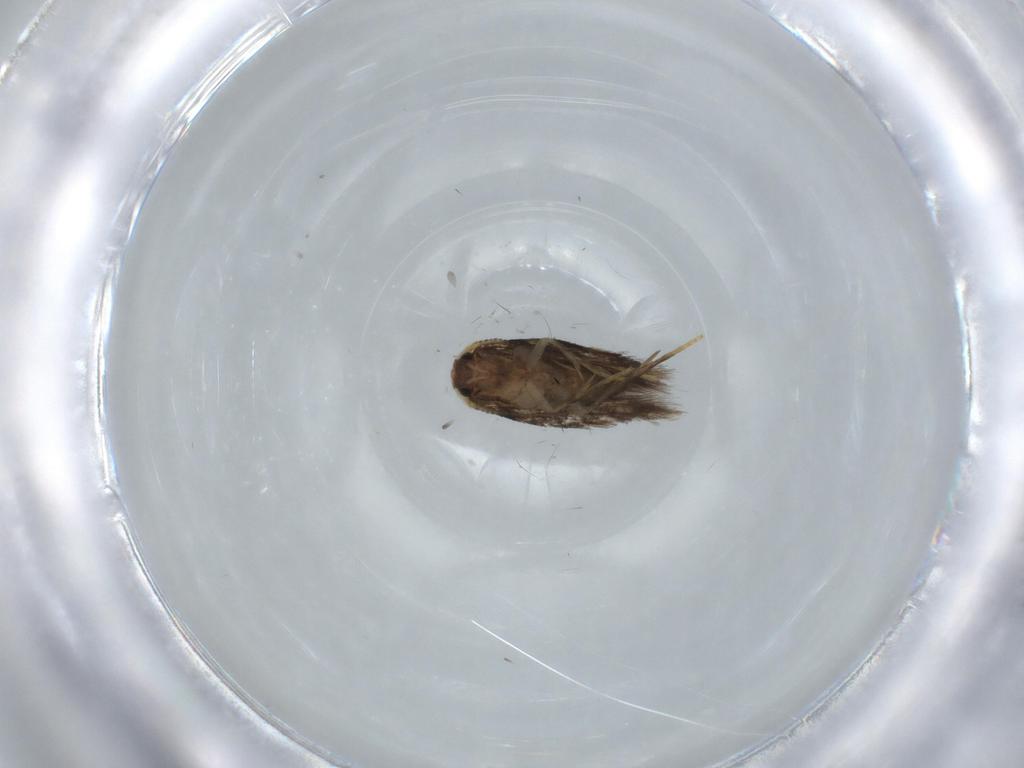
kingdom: Animalia
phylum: Arthropoda
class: Insecta
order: Lepidoptera
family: Nepticulidae
